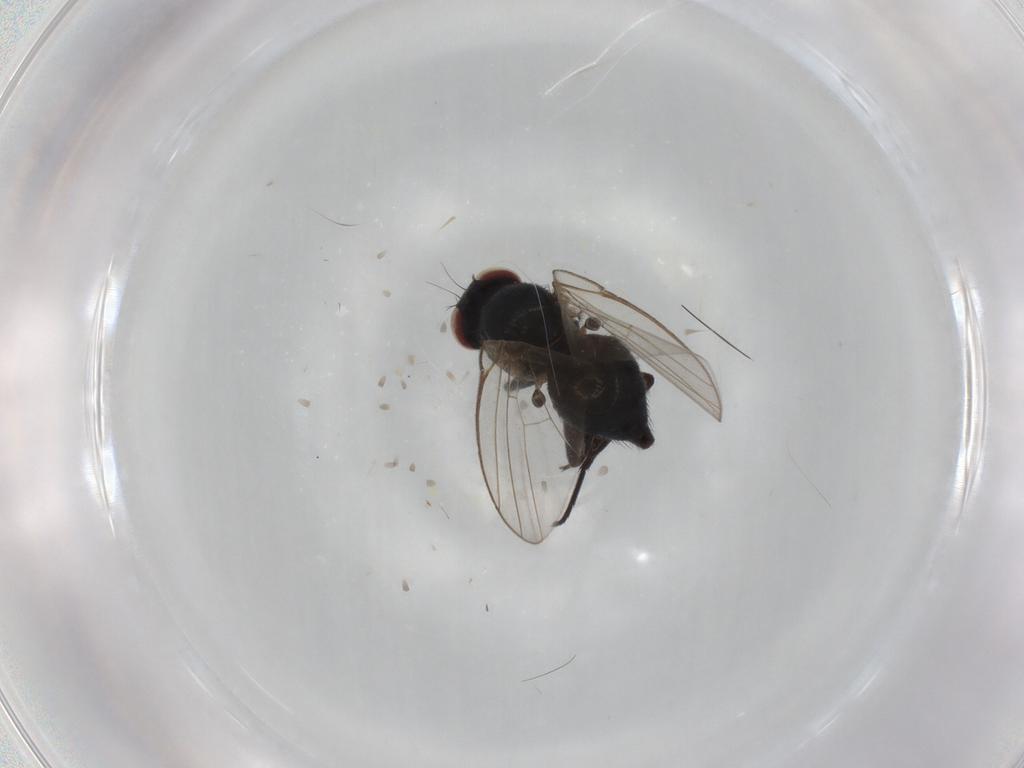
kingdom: Animalia
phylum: Arthropoda
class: Insecta
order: Diptera
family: Agromyzidae
